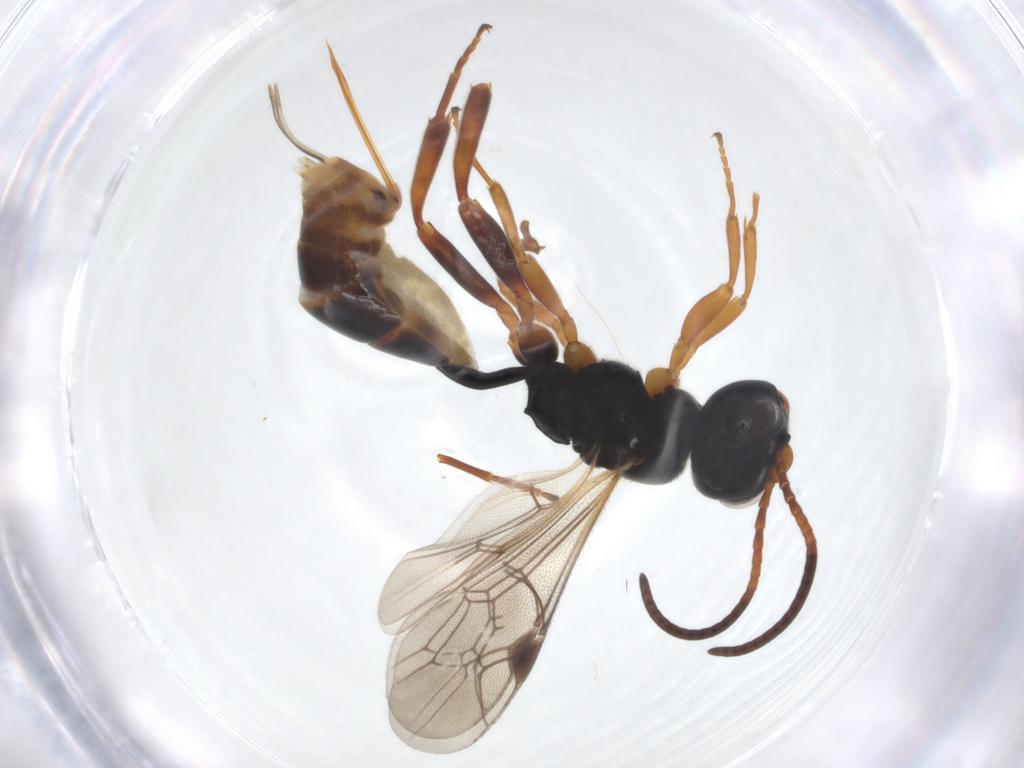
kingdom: Animalia
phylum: Arthropoda
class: Insecta
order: Hymenoptera
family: Ichneumonidae
